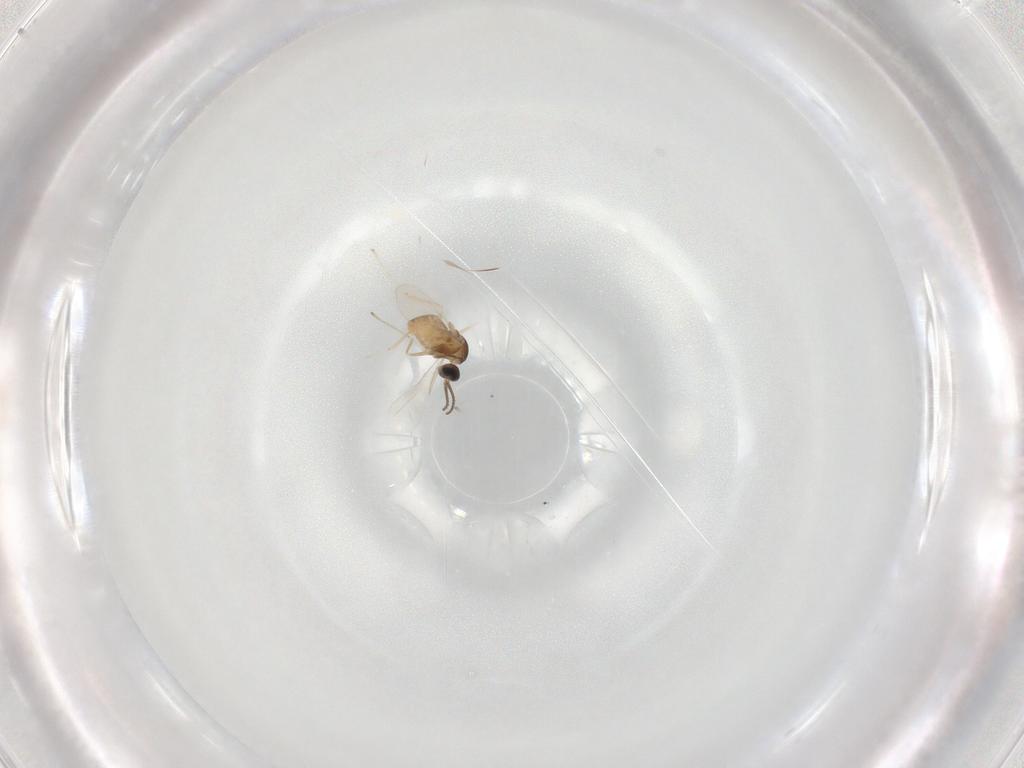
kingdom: Animalia
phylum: Arthropoda
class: Insecta
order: Diptera
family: Cecidomyiidae
